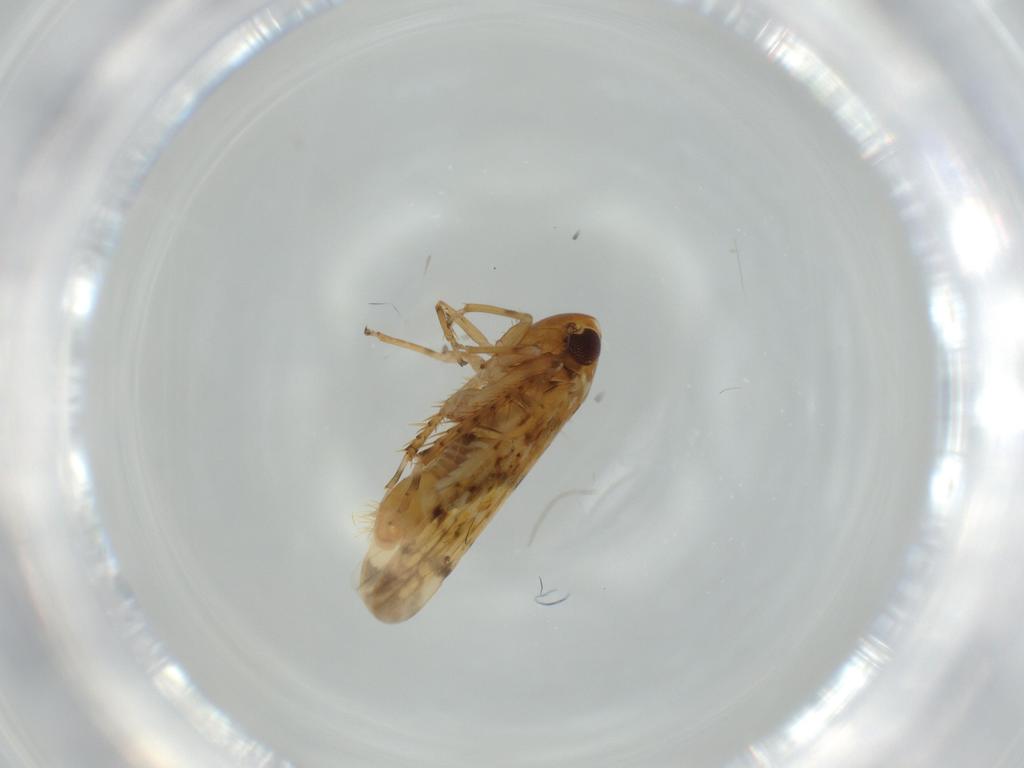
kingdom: Animalia
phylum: Arthropoda
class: Insecta
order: Hemiptera
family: Cicadellidae
